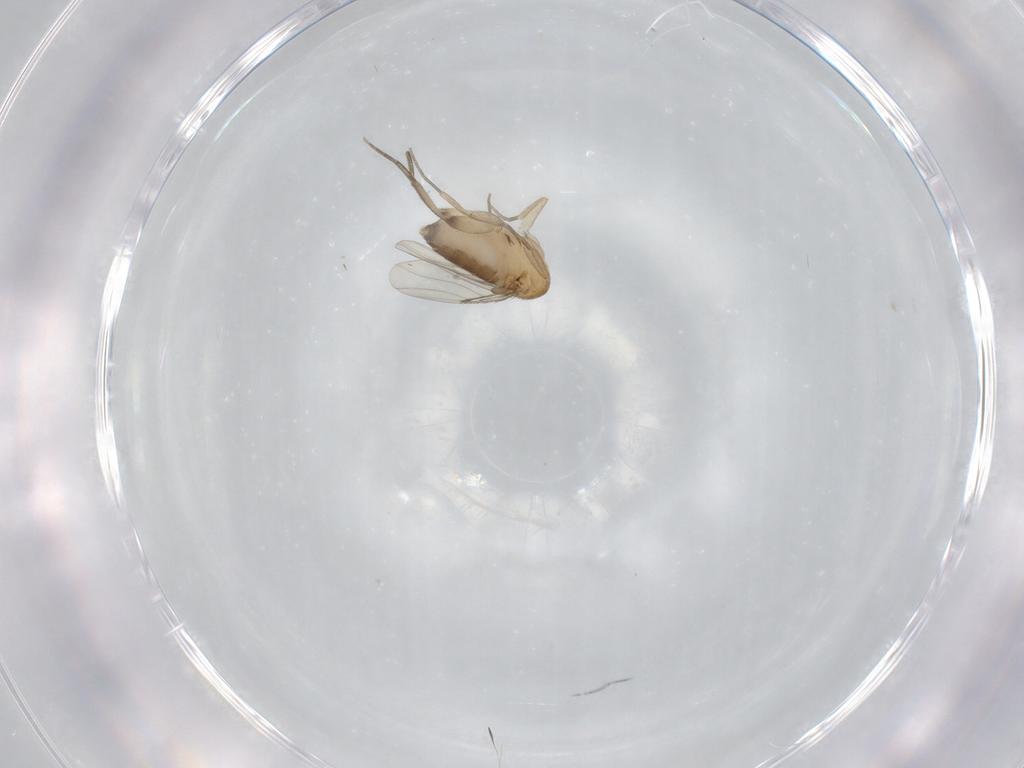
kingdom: Animalia
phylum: Arthropoda
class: Insecta
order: Diptera
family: Phoridae
